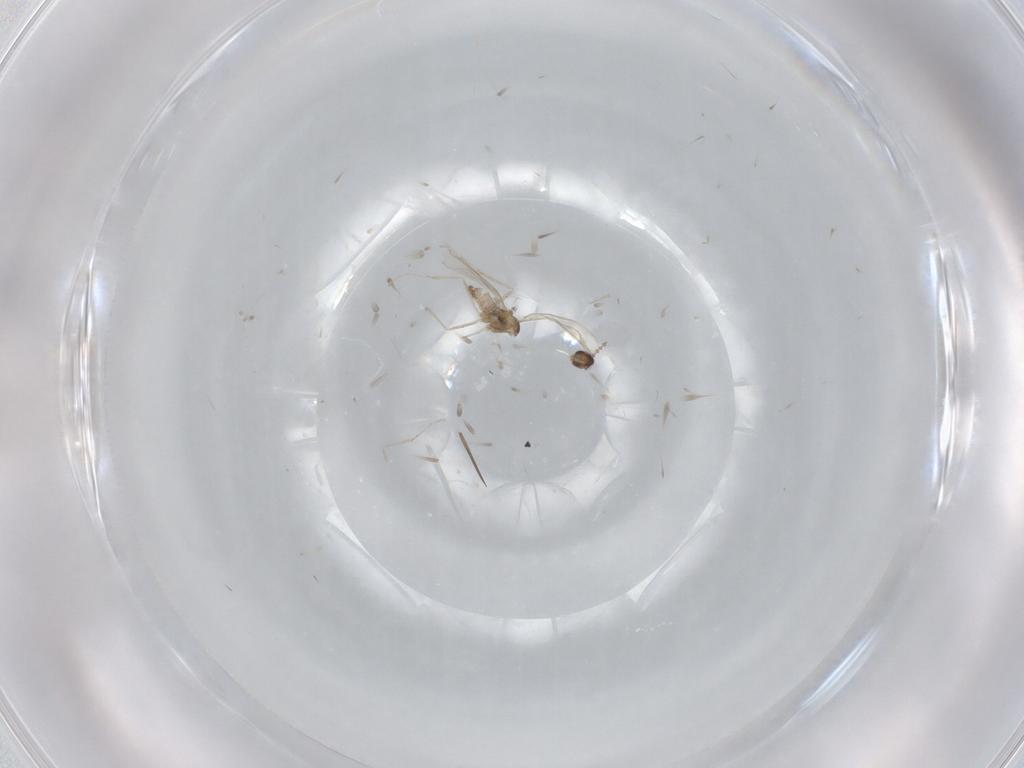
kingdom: Animalia
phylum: Arthropoda
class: Insecta
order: Diptera
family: Cecidomyiidae
